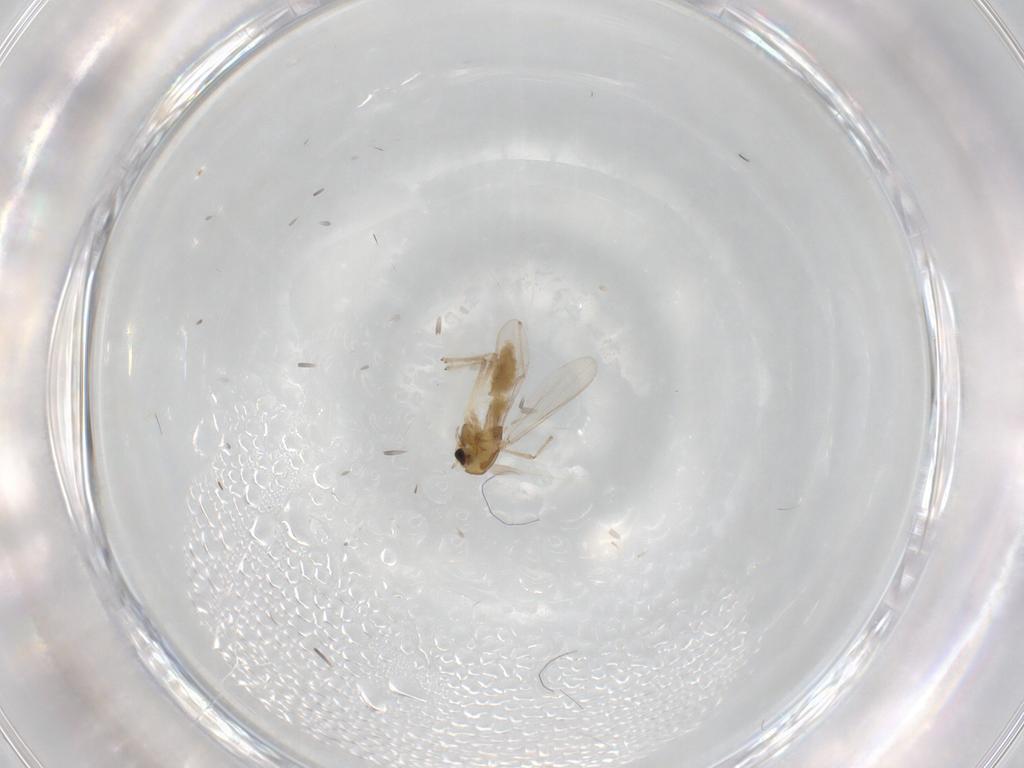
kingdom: Animalia
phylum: Arthropoda
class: Insecta
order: Diptera
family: Chironomidae
